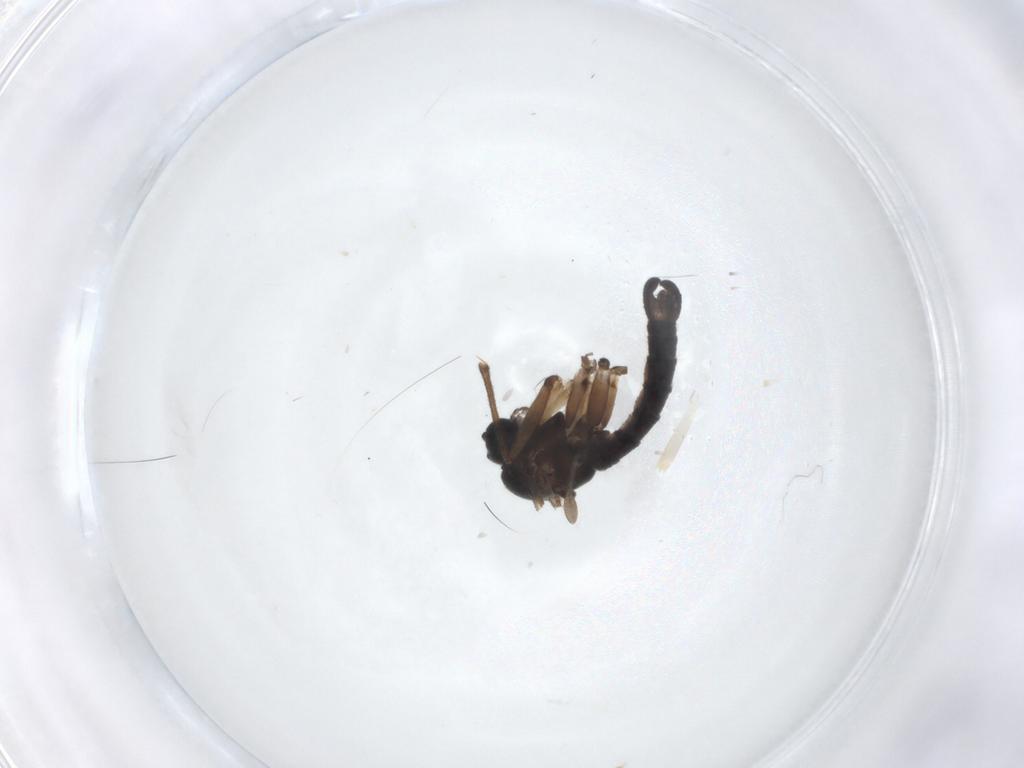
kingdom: Animalia
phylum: Arthropoda
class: Insecta
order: Diptera
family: Sciaridae
